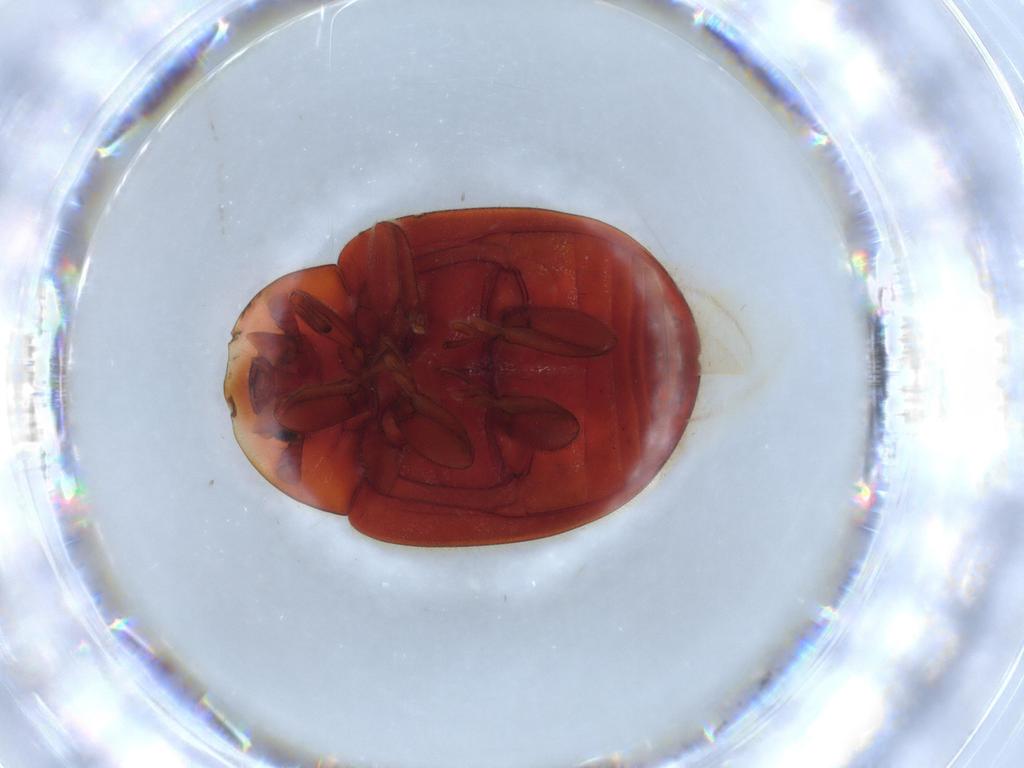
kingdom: Animalia
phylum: Arthropoda
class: Insecta
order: Coleoptera
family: Coccinellidae
